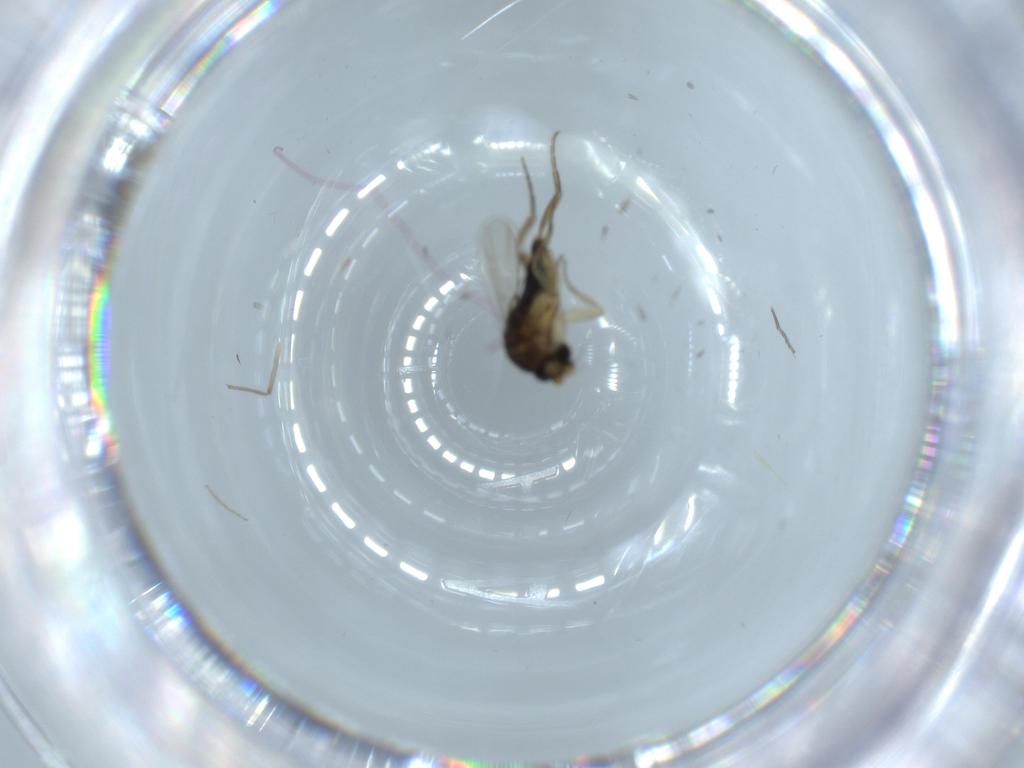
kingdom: Animalia
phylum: Arthropoda
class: Insecta
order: Diptera
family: Phoridae
